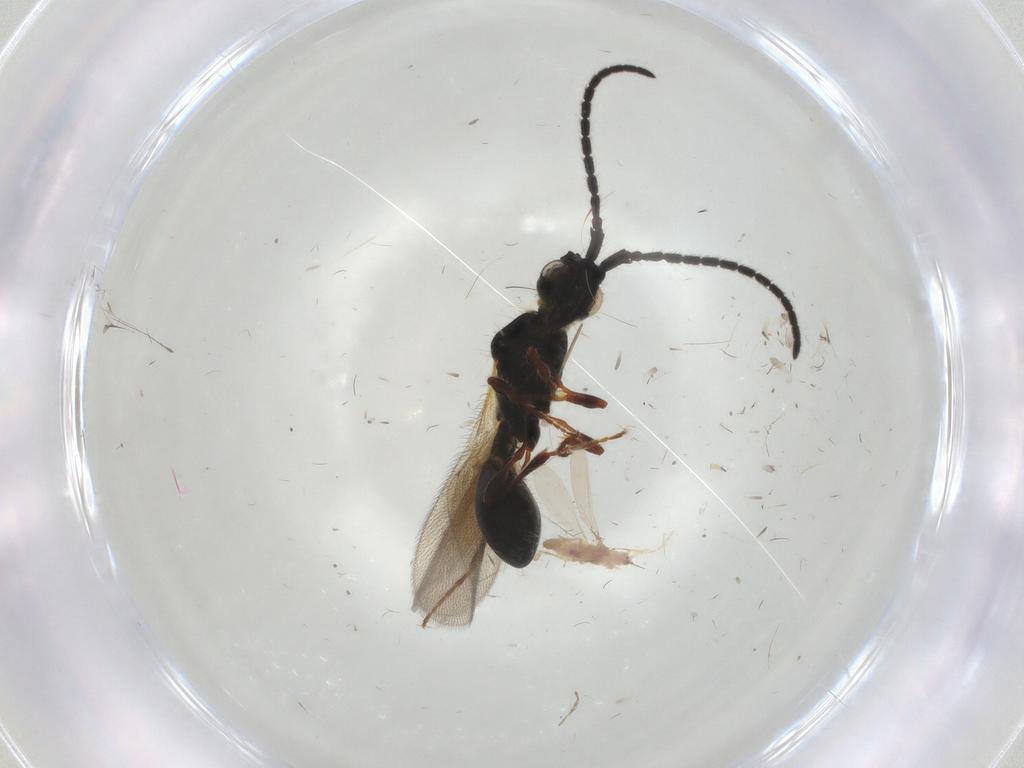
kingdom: Animalia
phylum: Arthropoda
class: Insecta
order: Hymenoptera
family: Diapriidae
